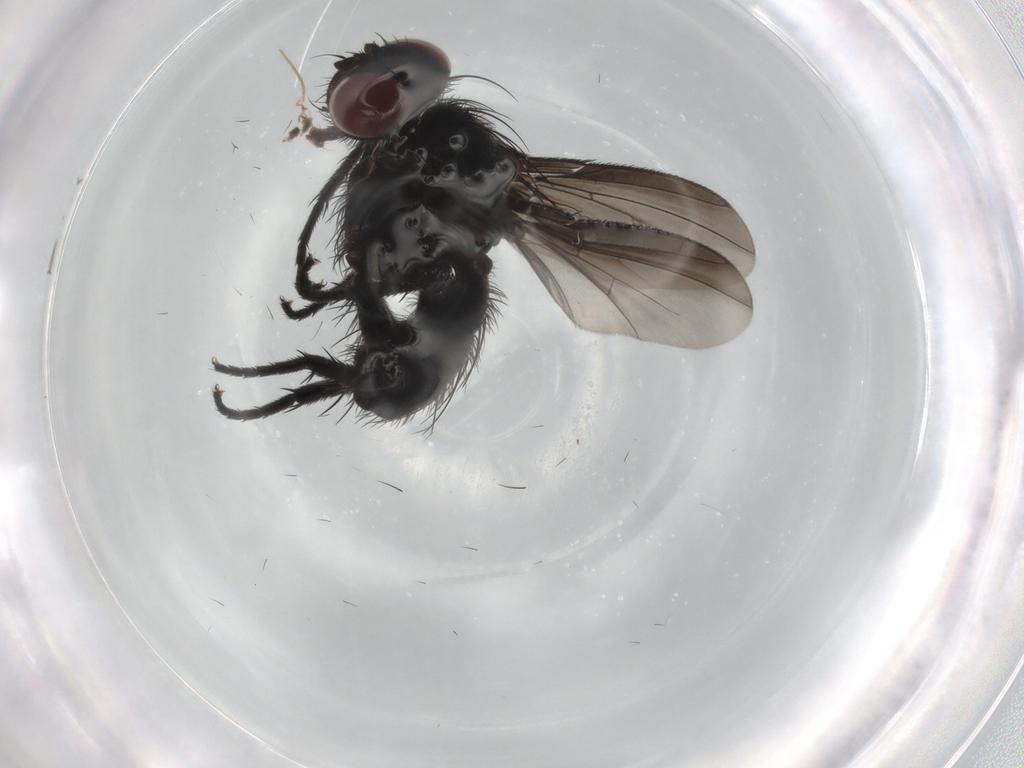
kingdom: Animalia
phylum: Arthropoda
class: Insecta
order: Diptera
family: Tachinidae
